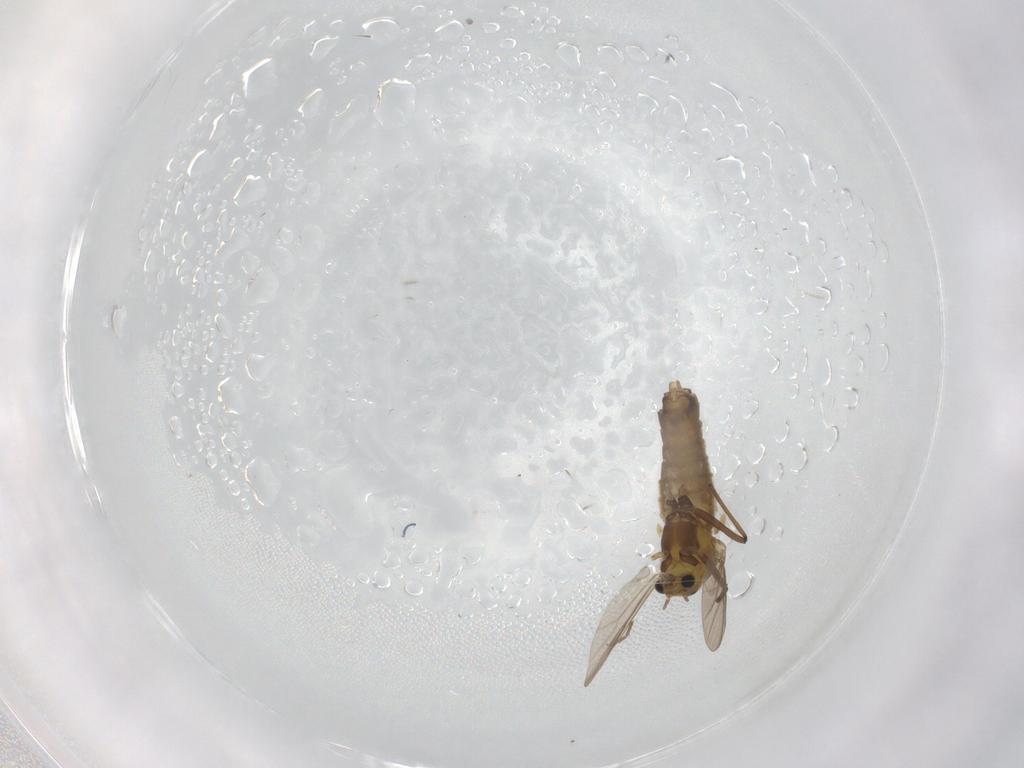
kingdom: Animalia
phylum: Arthropoda
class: Insecta
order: Diptera
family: Chironomidae
